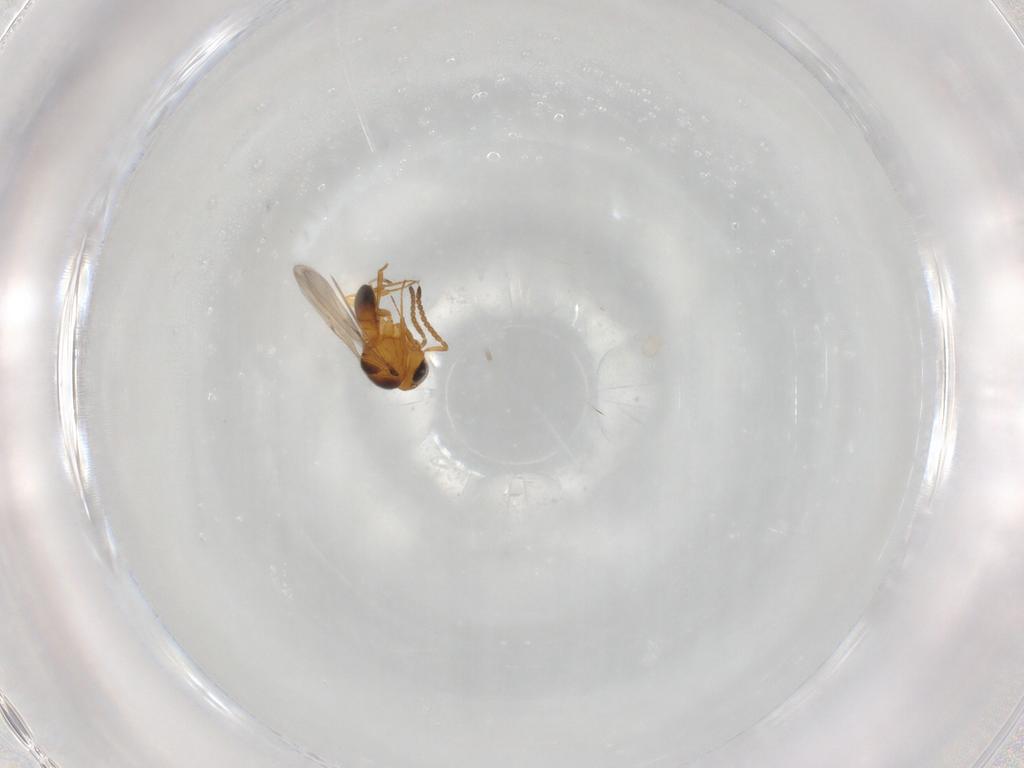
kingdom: Animalia
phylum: Arthropoda
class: Insecta
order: Hymenoptera
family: Scelionidae
